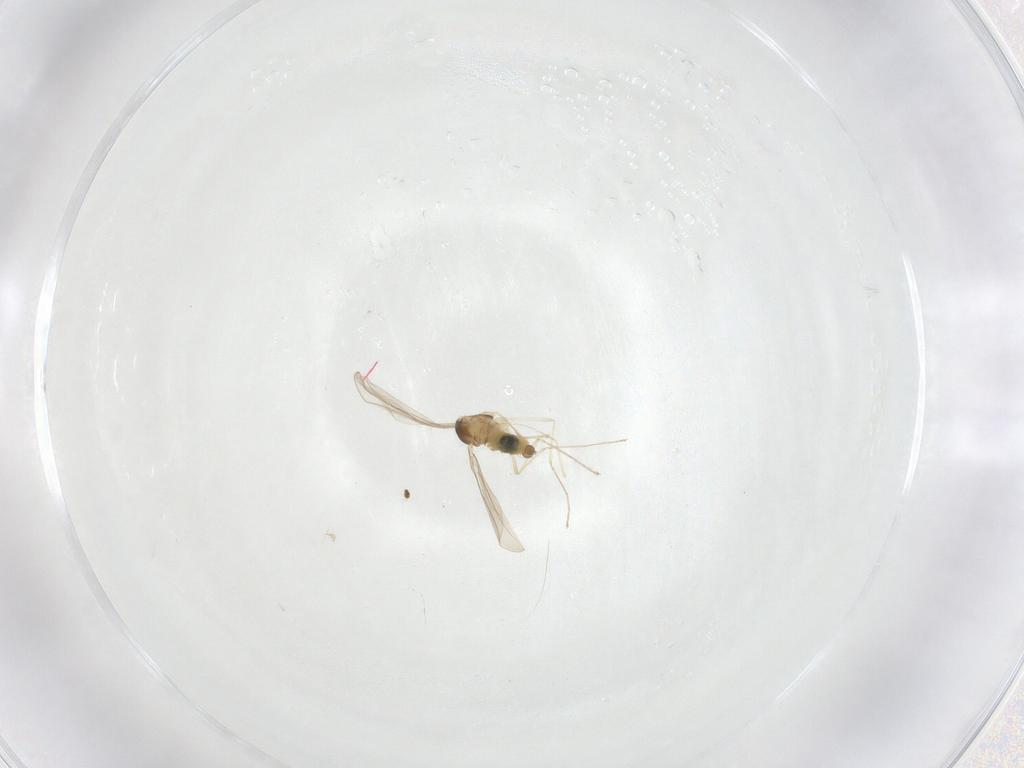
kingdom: Animalia
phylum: Arthropoda
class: Insecta
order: Diptera
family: Cecidomyiidae
